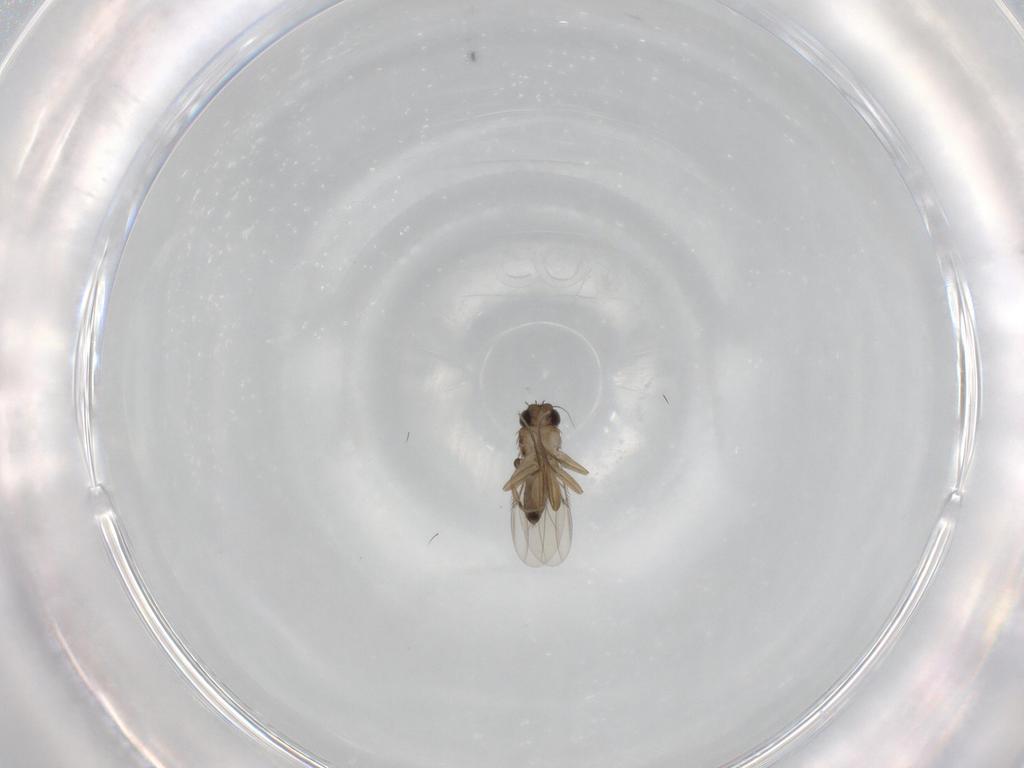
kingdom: Animalia
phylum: Arthropoda
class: Insecta
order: Diptera
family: Phoridae
